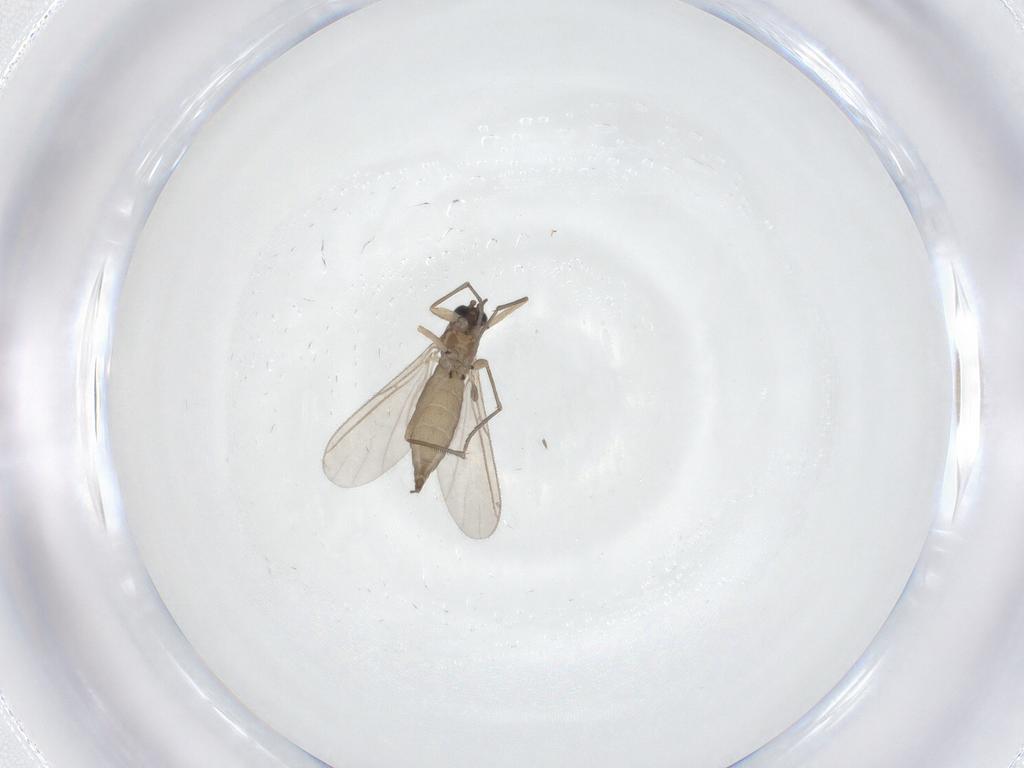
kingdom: Animalia
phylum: Arthropoda
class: Insecta
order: Diptera
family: Sciaridae
